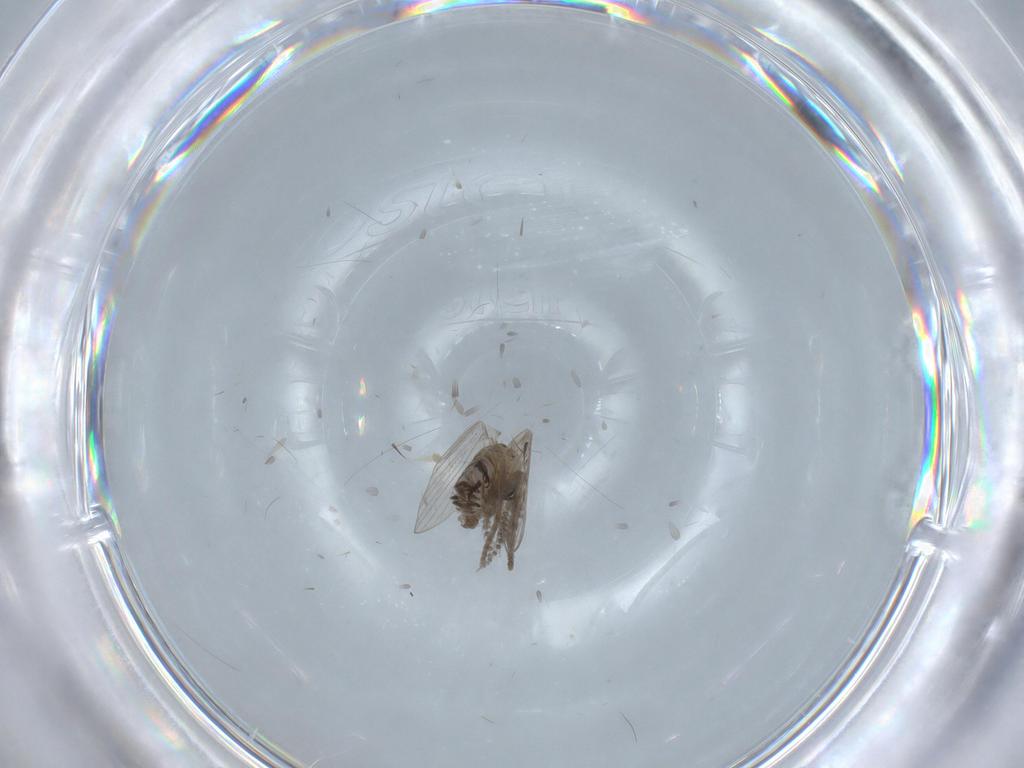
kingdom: Animalia
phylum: Arthropoda
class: Insecta
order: Diptera
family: Psychodidae
